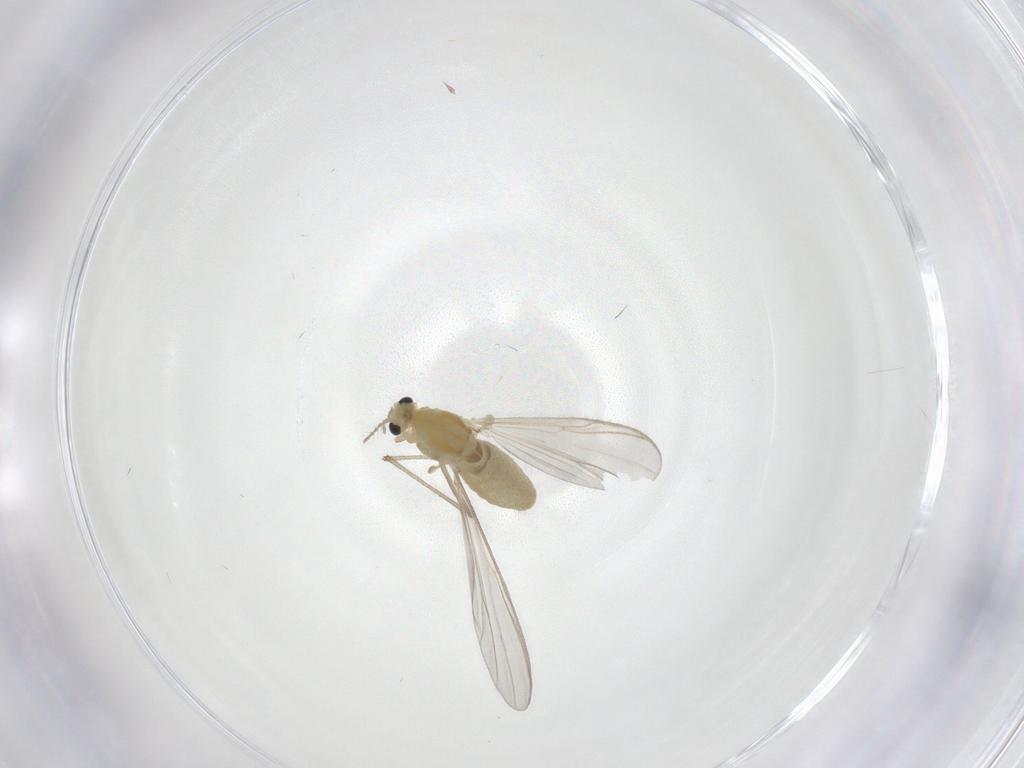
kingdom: Animalia
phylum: Arthropoda
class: Insecta
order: Diptera
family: Chironomidae
